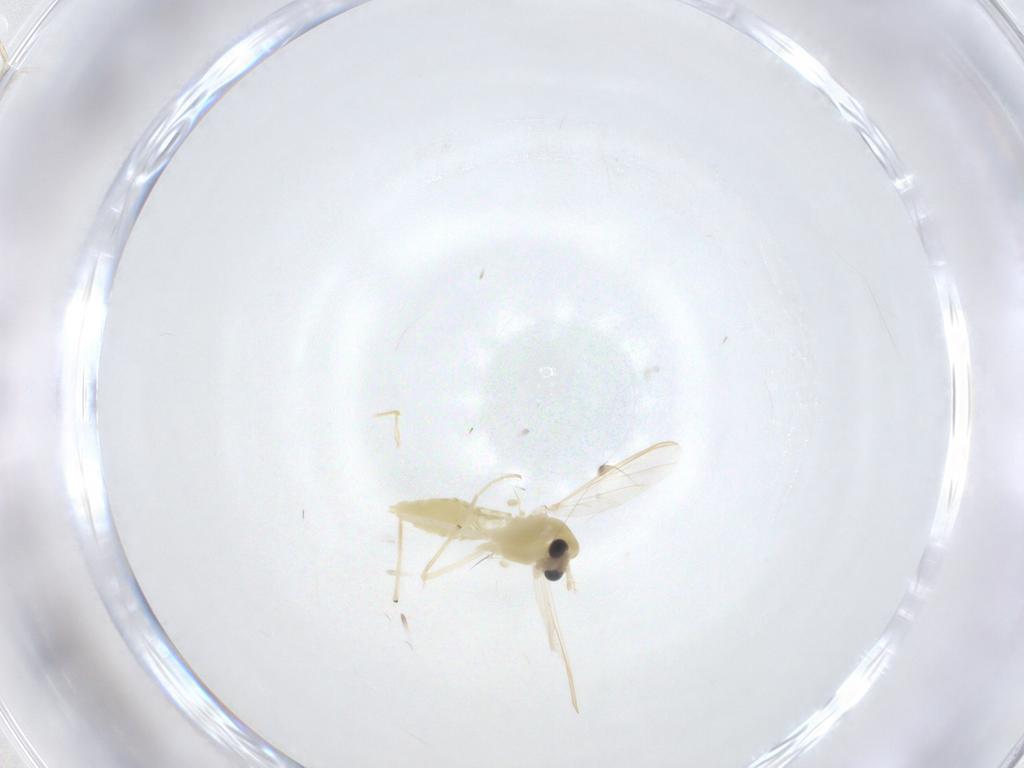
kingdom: Animalia
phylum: Arthropoda
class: Insecta
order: Diptera
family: Chironomidae
